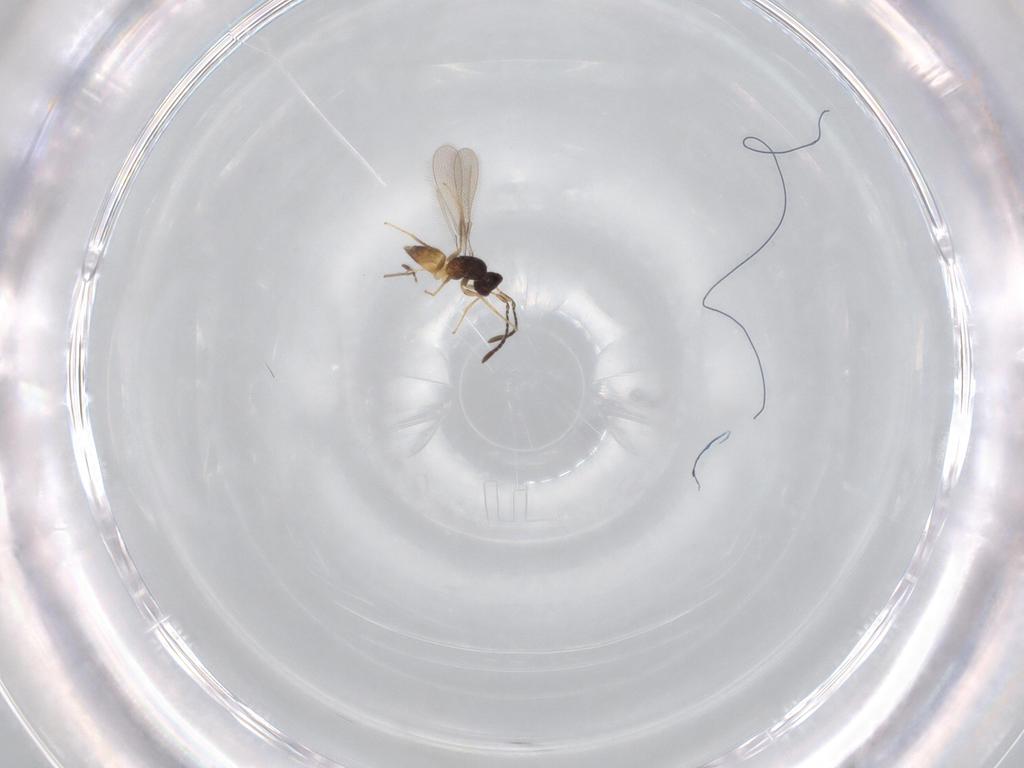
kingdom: Animalia
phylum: Arthropoda
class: Insecta
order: Hymenoptera
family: Mymaridae
